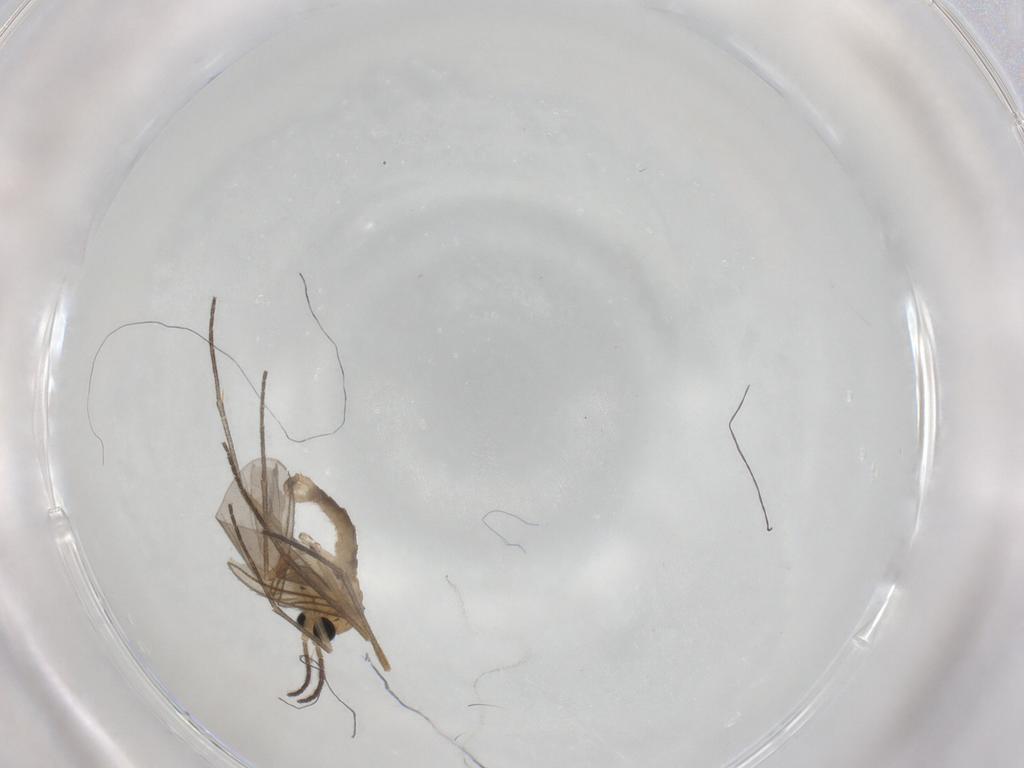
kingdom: Animalia
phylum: Arthropoda
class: Insecta
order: Diptera
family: Sciaridae
